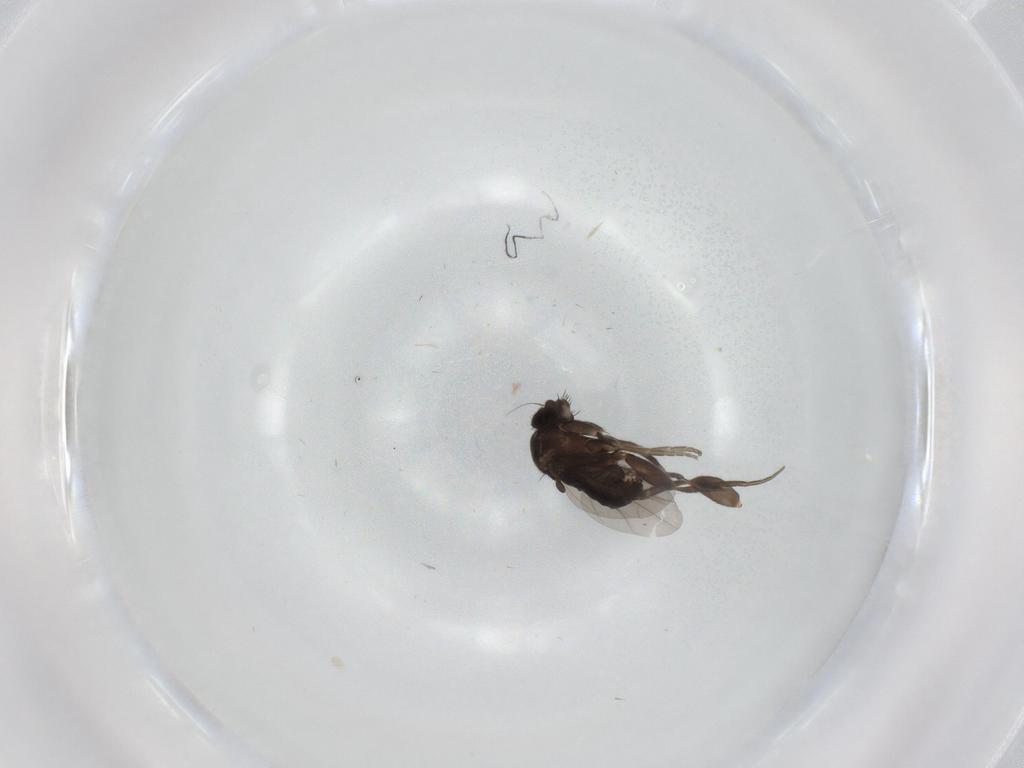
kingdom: Animalia
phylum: Arthropoda
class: Insecta
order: Diptera
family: Phoridae
